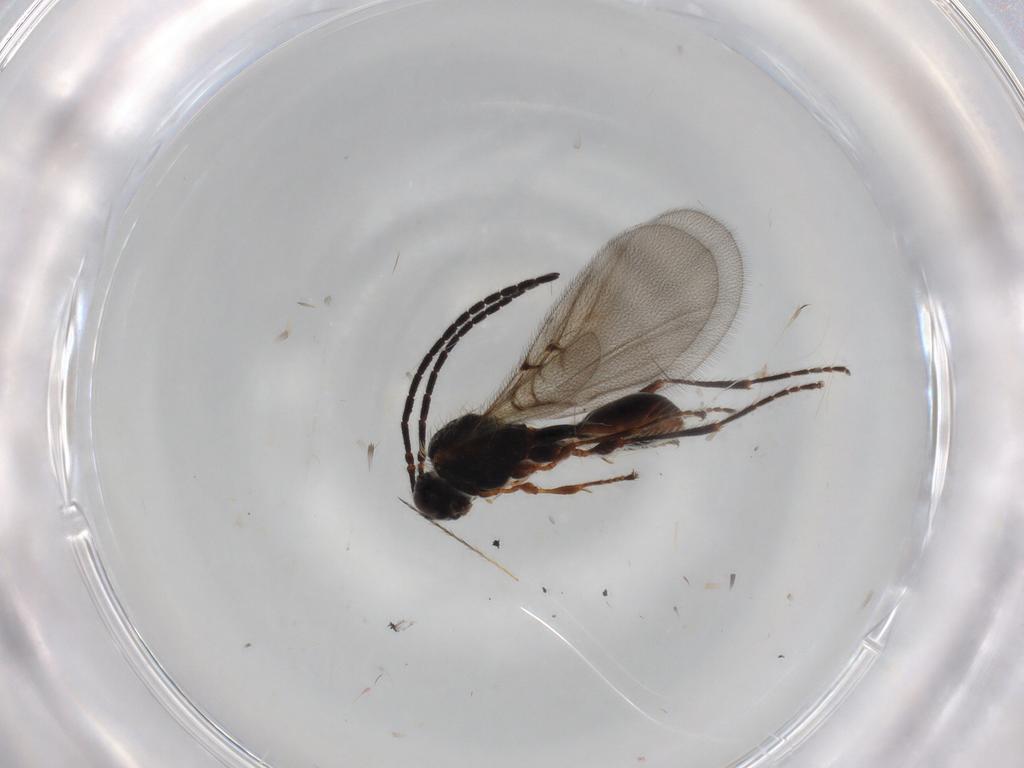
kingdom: Animalia
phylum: Arthropoda
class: Insecta
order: Hymenoptera
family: Diapriidae
